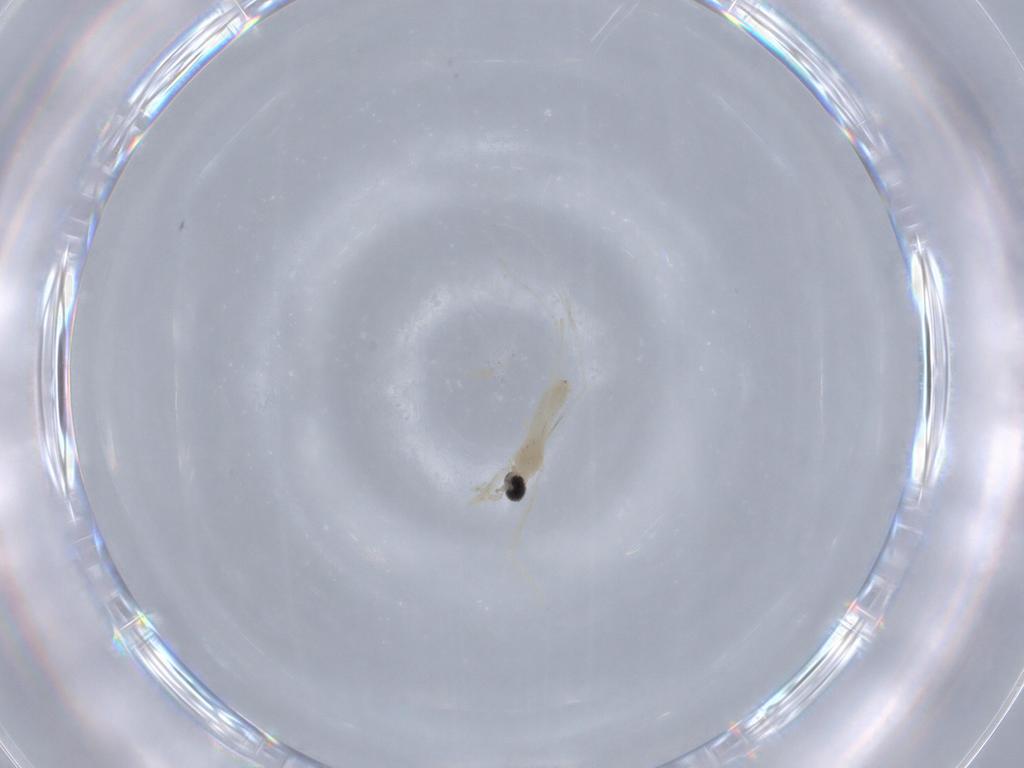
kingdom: Animalia
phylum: Arthropoda
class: Insecta
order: Diptera
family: Cecidomyiidae
